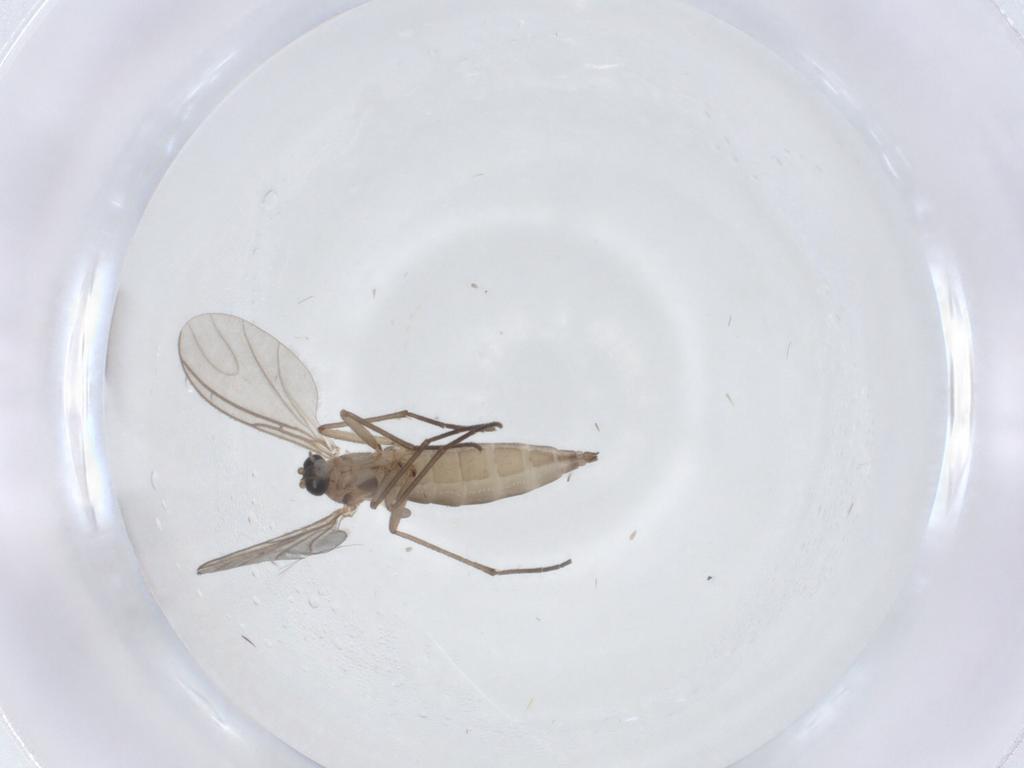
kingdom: Animalia
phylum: Arthropoda
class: Insecta
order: Diptera
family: Sciaridae
